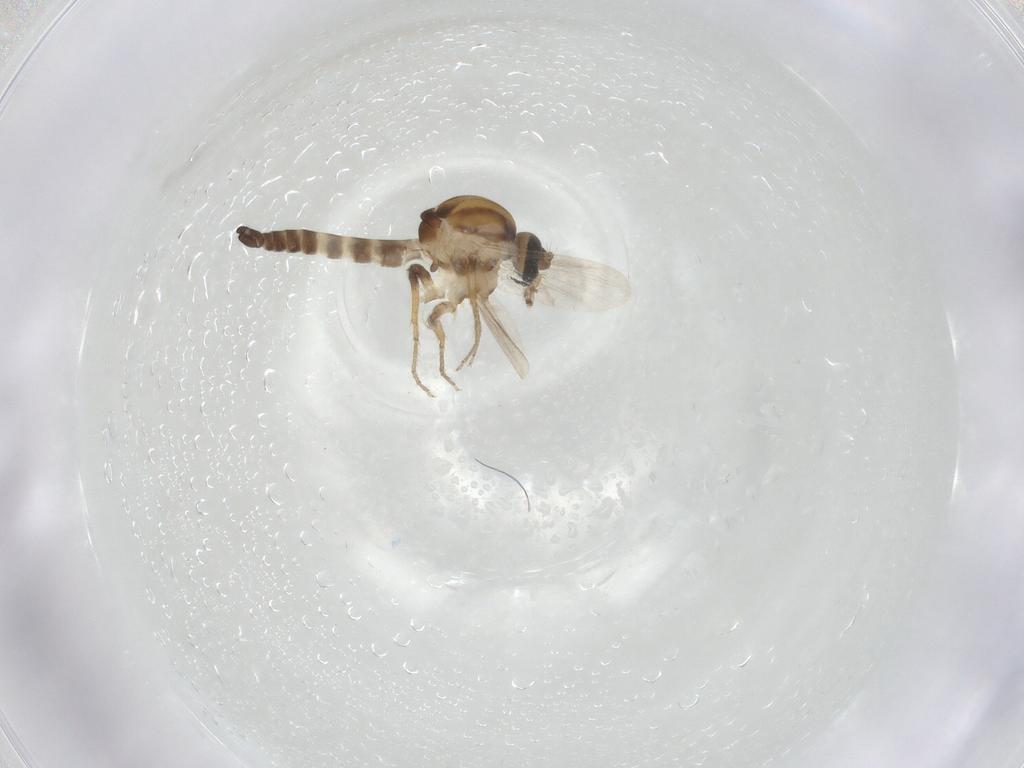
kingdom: Animalia
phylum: Arthropoda
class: Insecta
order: Diptera
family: Ceratopogonidae
